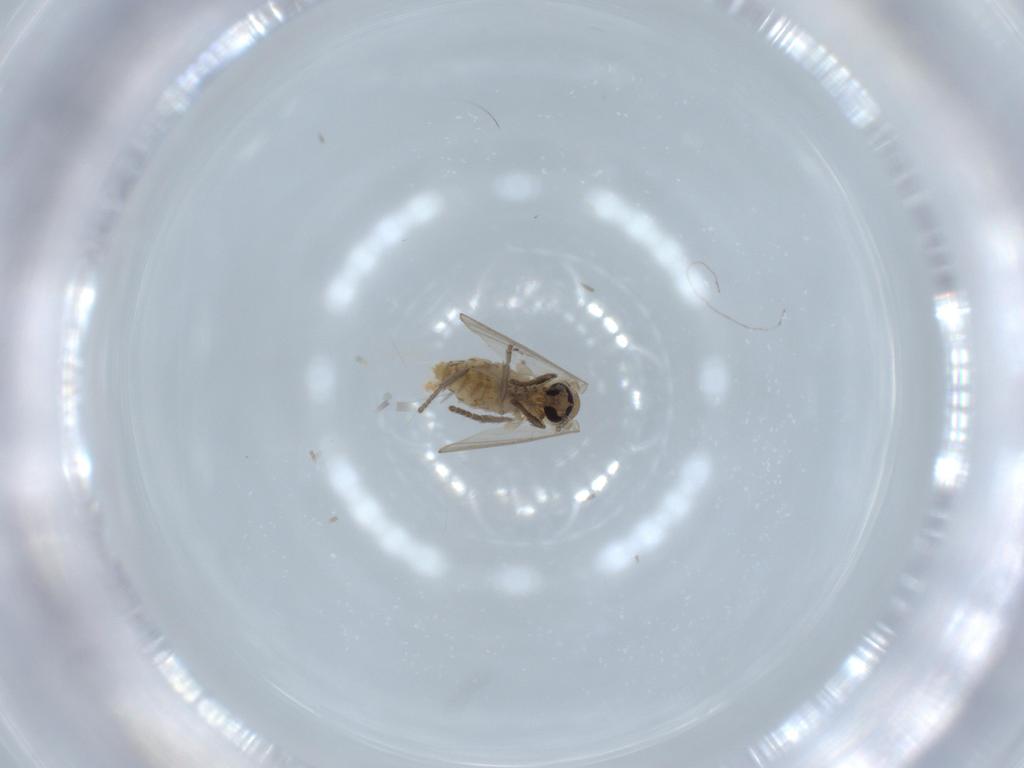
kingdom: Animalia
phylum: Arthropoda
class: Insecta
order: Diptera
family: Psychodidae
